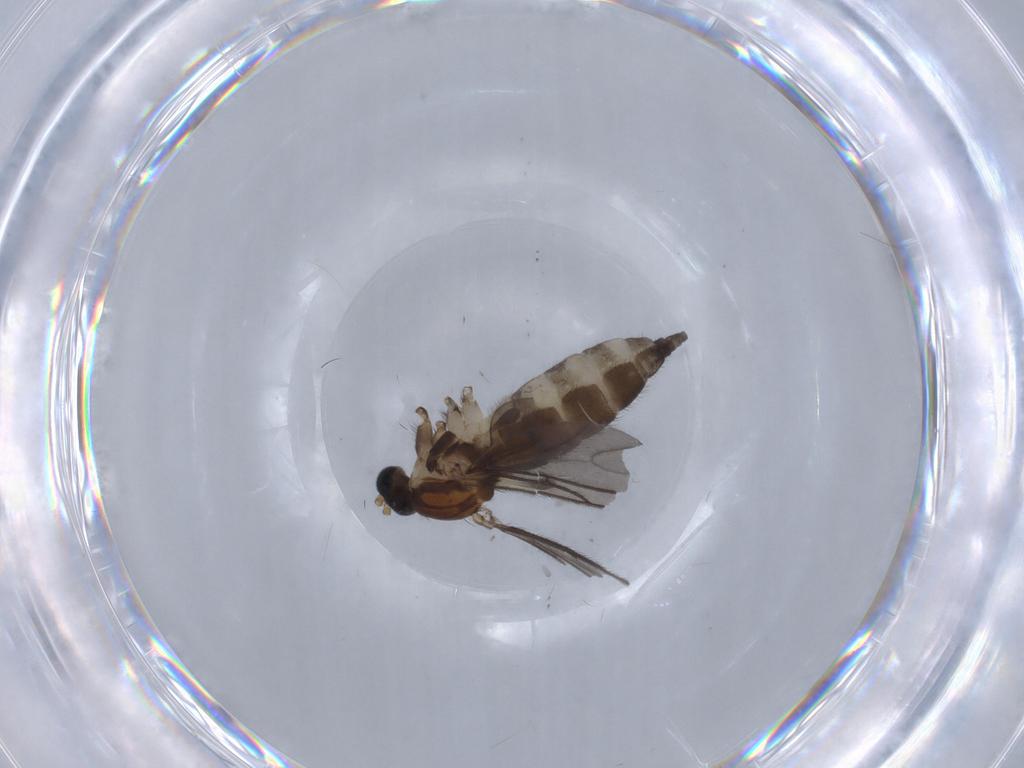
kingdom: Animalia
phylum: Arthropoda
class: Insecta
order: Diptera
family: Sciaridae
